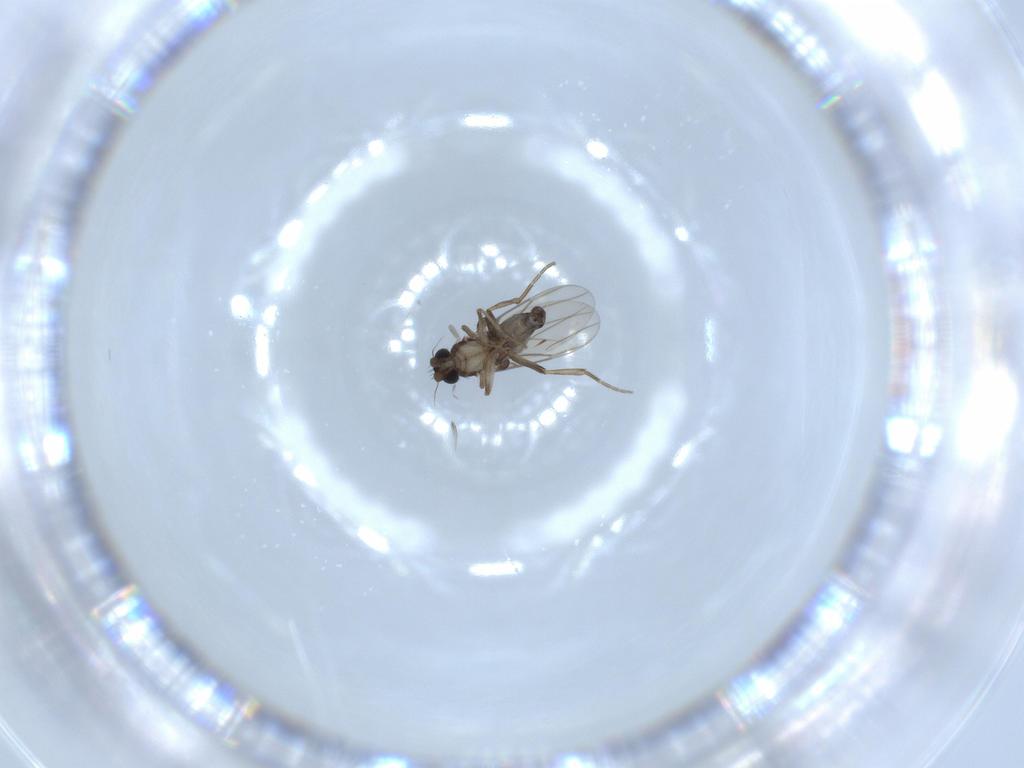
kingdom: Animalia
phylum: Arthropoda
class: Insecta
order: Diptera
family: Phoridae
